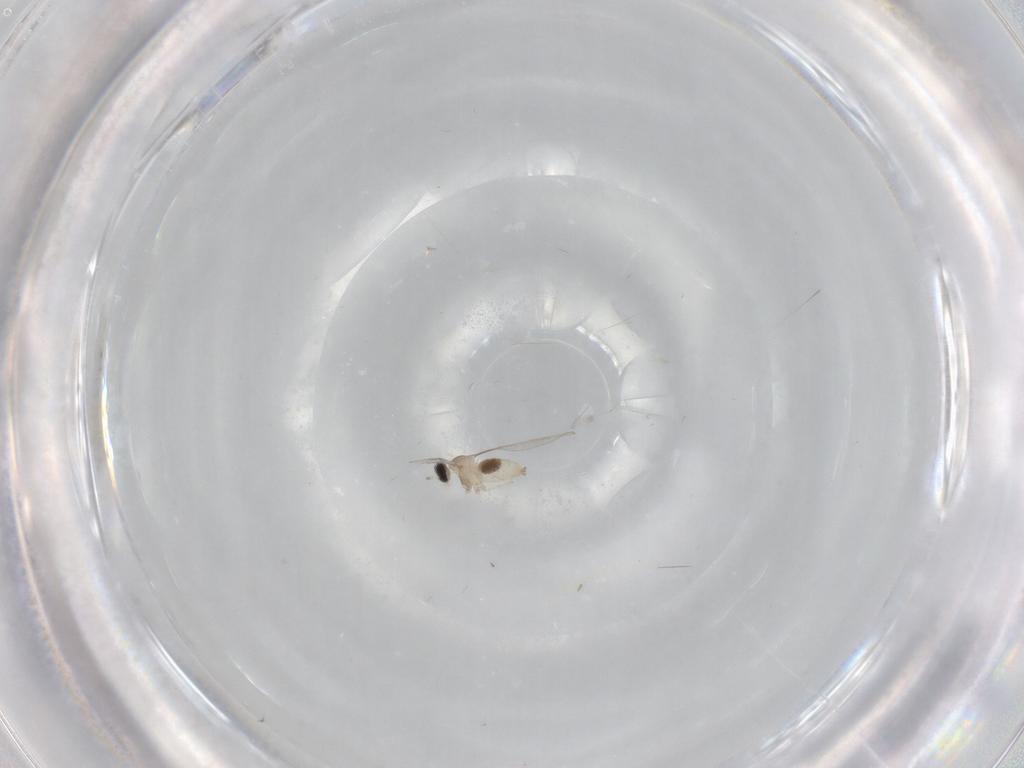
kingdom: Animalia
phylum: Arthropoda
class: Insecta
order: Diptera
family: Cecidomyiidae
